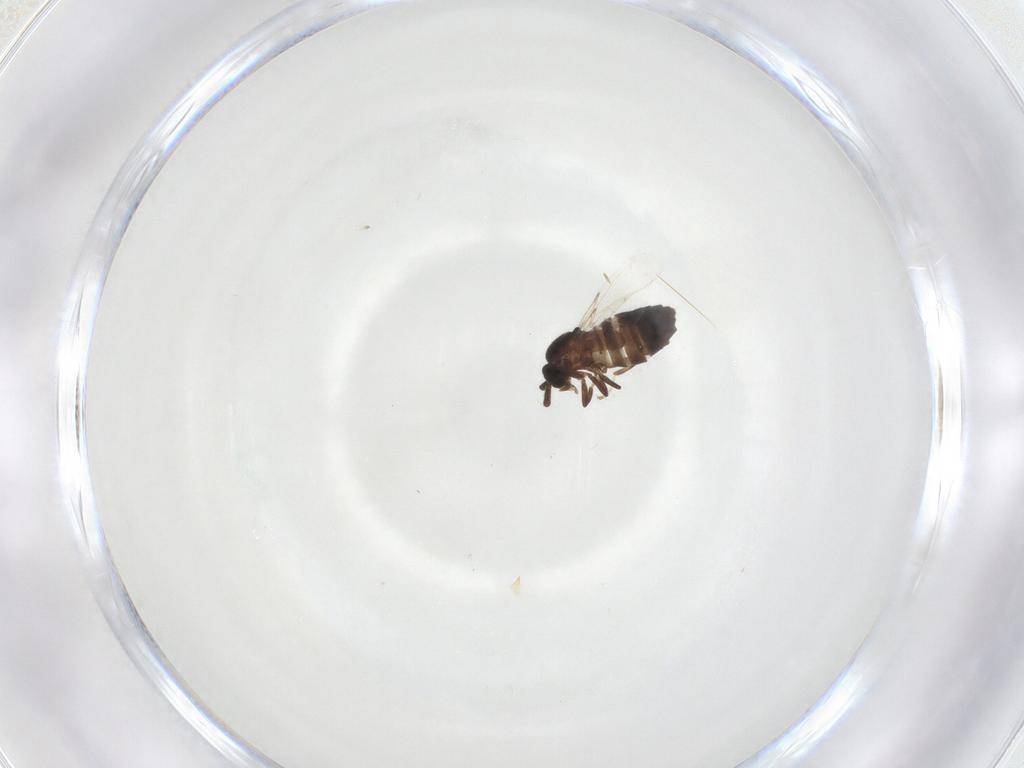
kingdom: Animalia
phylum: Arthropoda
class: Insecta
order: Diptera
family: Scatopsidae
